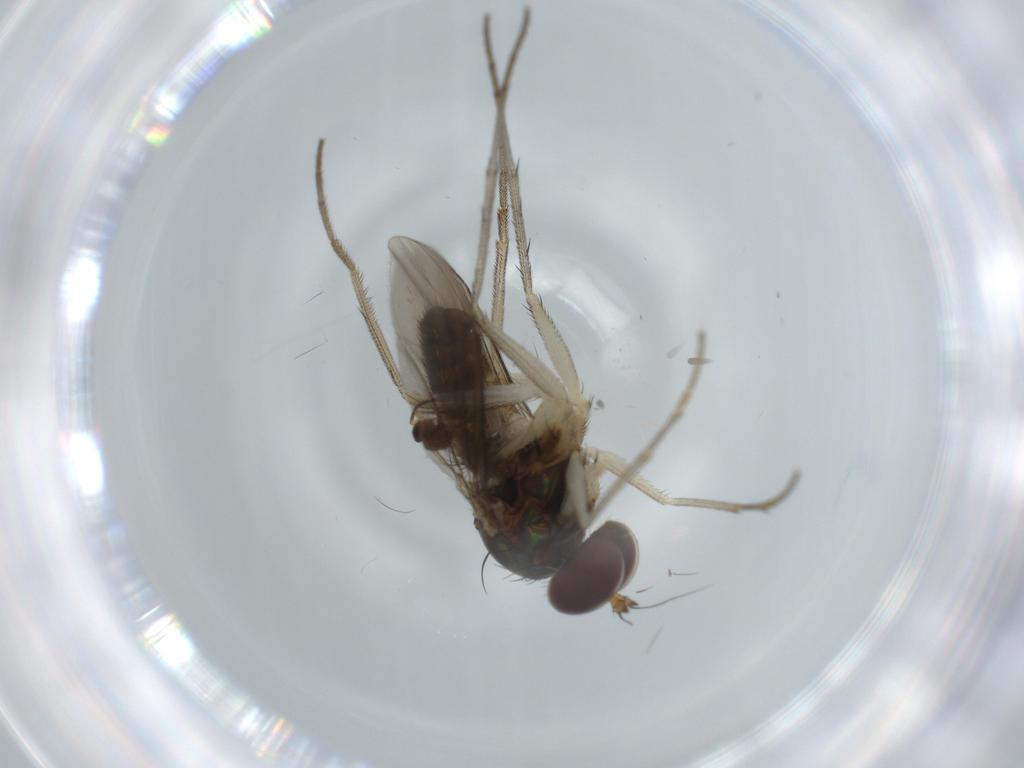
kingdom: Animalia
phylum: Arthropoda
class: Insecta
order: Diptera
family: Dolichopodidae
